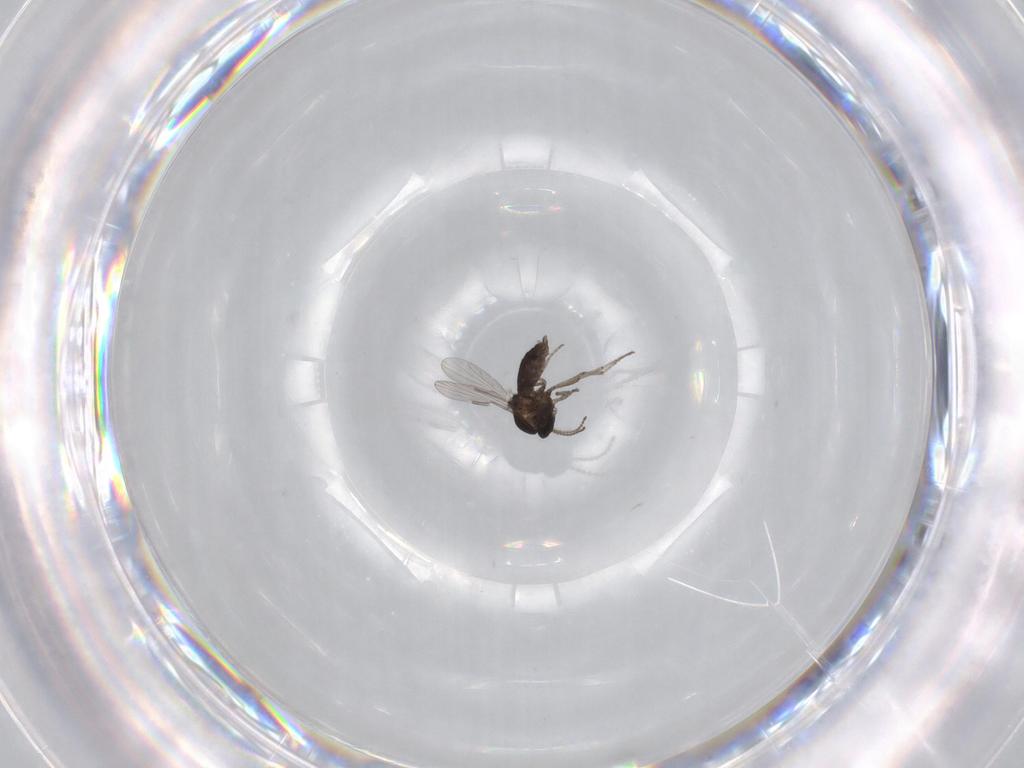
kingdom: Animalia
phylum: Arthropoda
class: Insecta
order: Diptera
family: Ceratopogonidae
